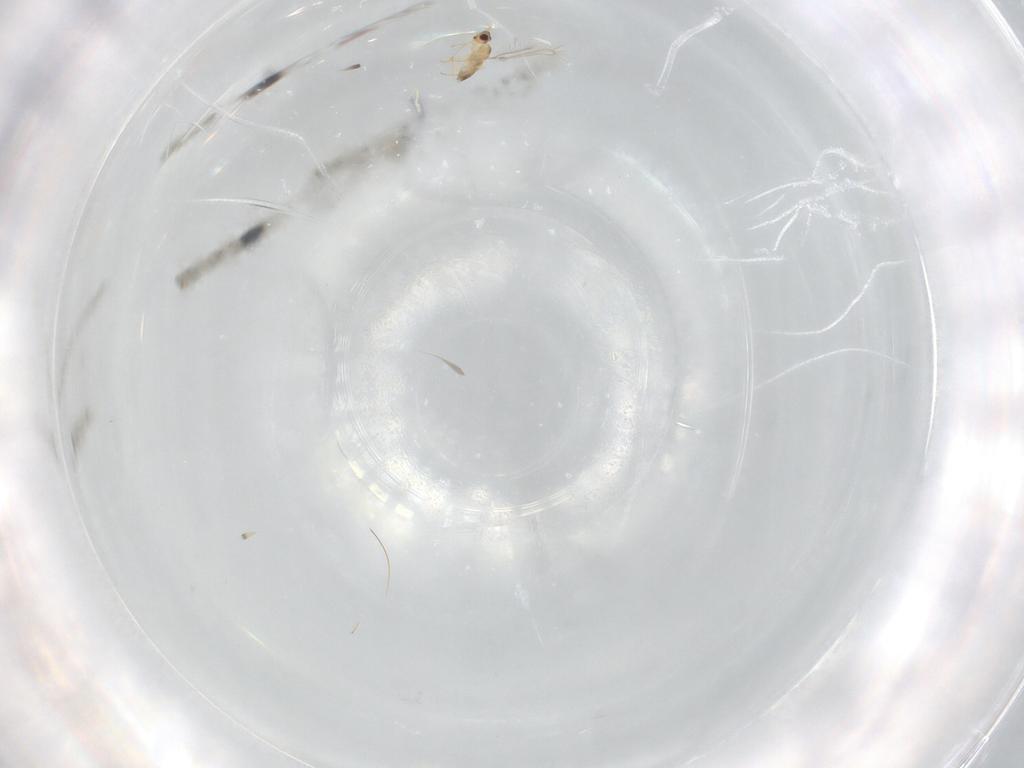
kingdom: Animalia
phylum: Arthropoda
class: Insecta
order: Hymenoptera
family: Mymaridae
